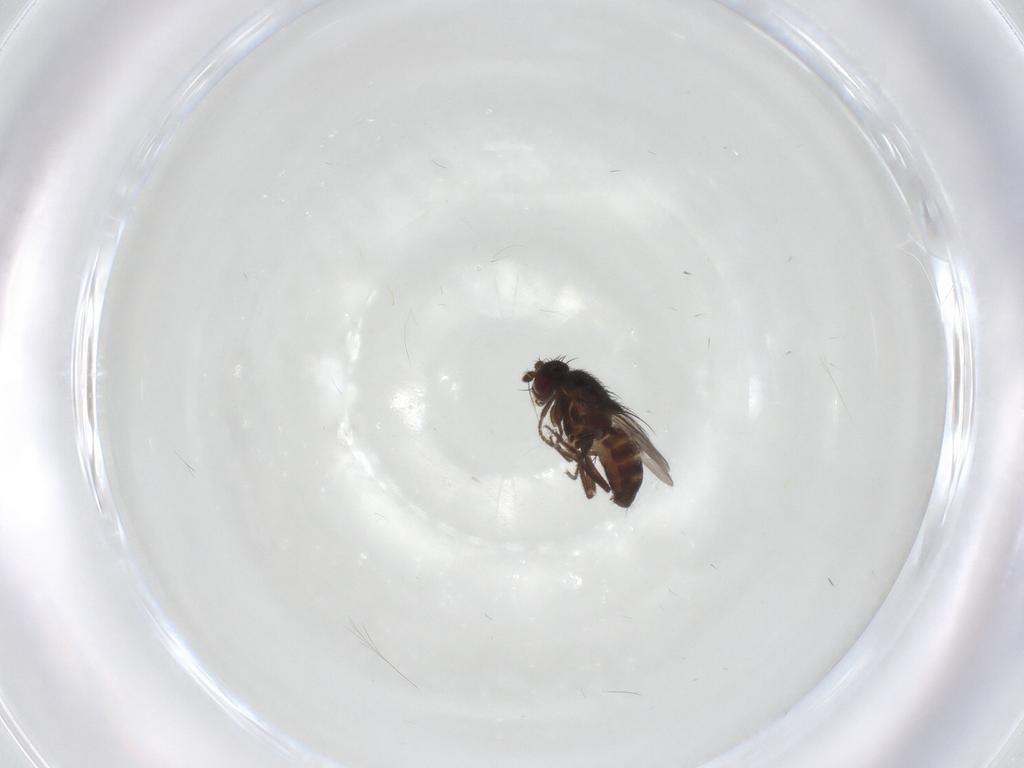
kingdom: Animalia
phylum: Arthropoda
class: Insecta
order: Diptera
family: Sphaeroceridae
